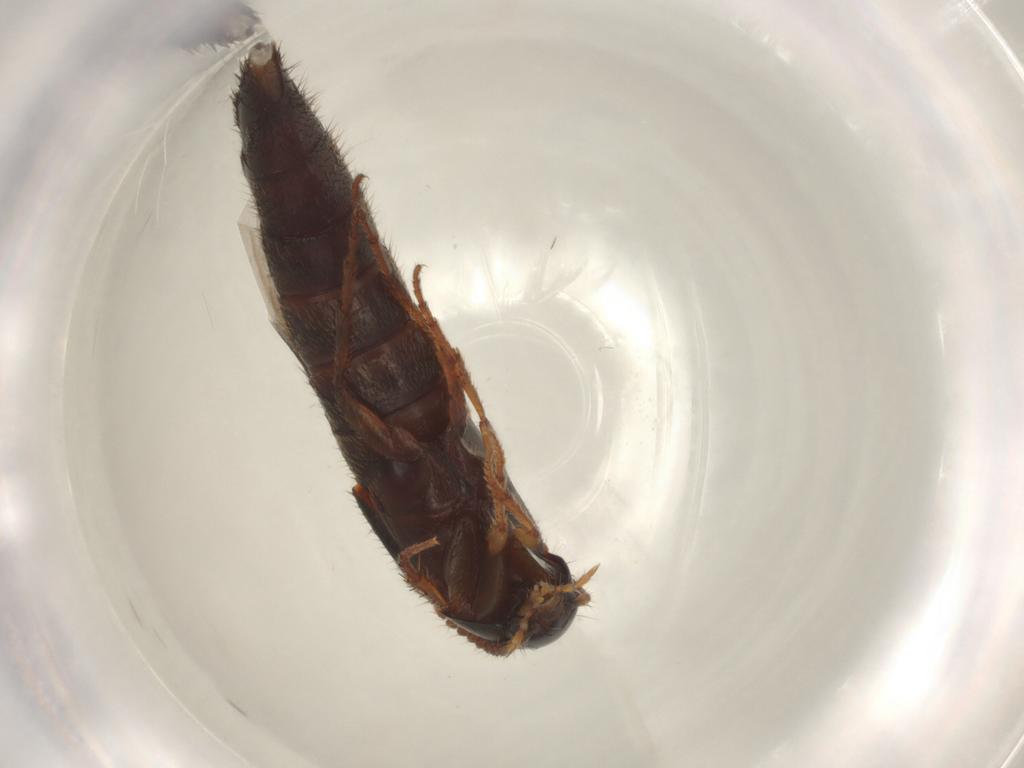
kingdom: Animalia
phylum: Arthropoda
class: Insecta
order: Coleoptera
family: Staphylinidae
